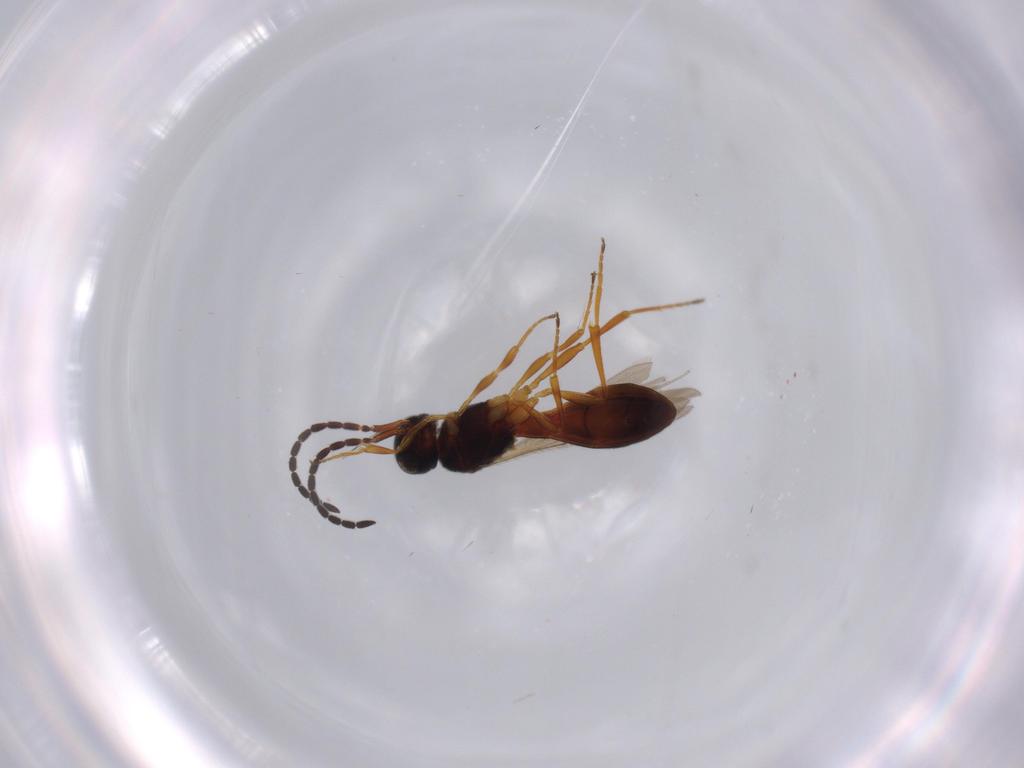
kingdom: Animalia
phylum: Arthropoda
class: Insecta
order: Hymenoptera
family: Scelionidae
